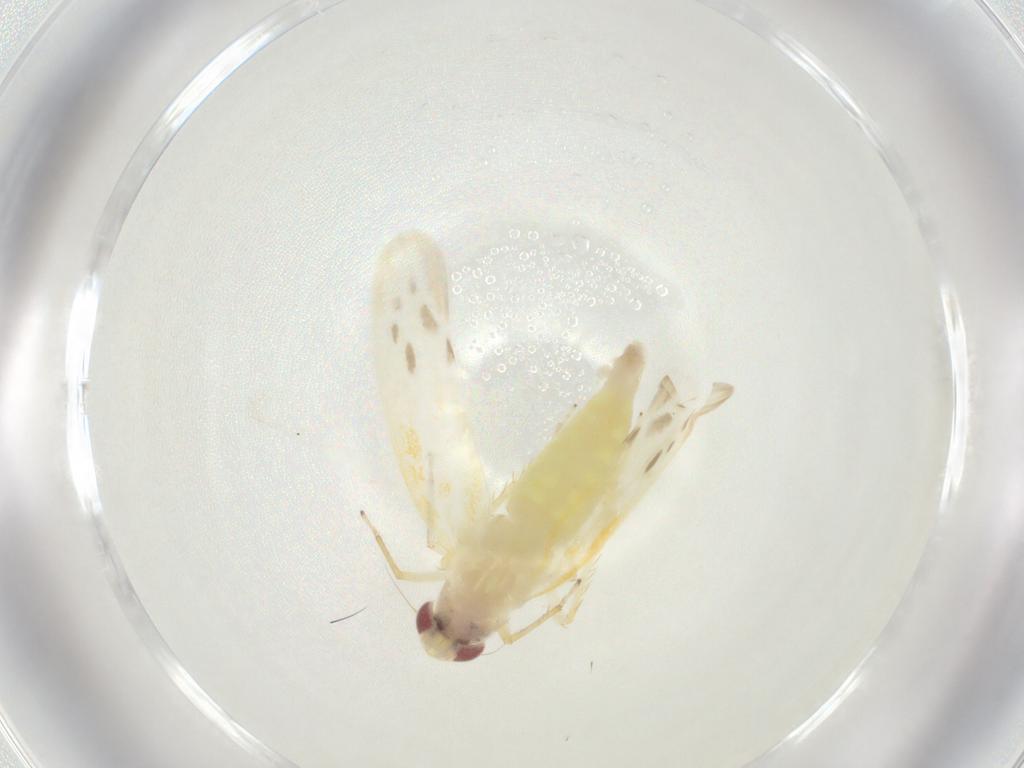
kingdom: Animalia
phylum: Arthropoda
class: Insecta
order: Hemiptera
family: Cicadellidae
